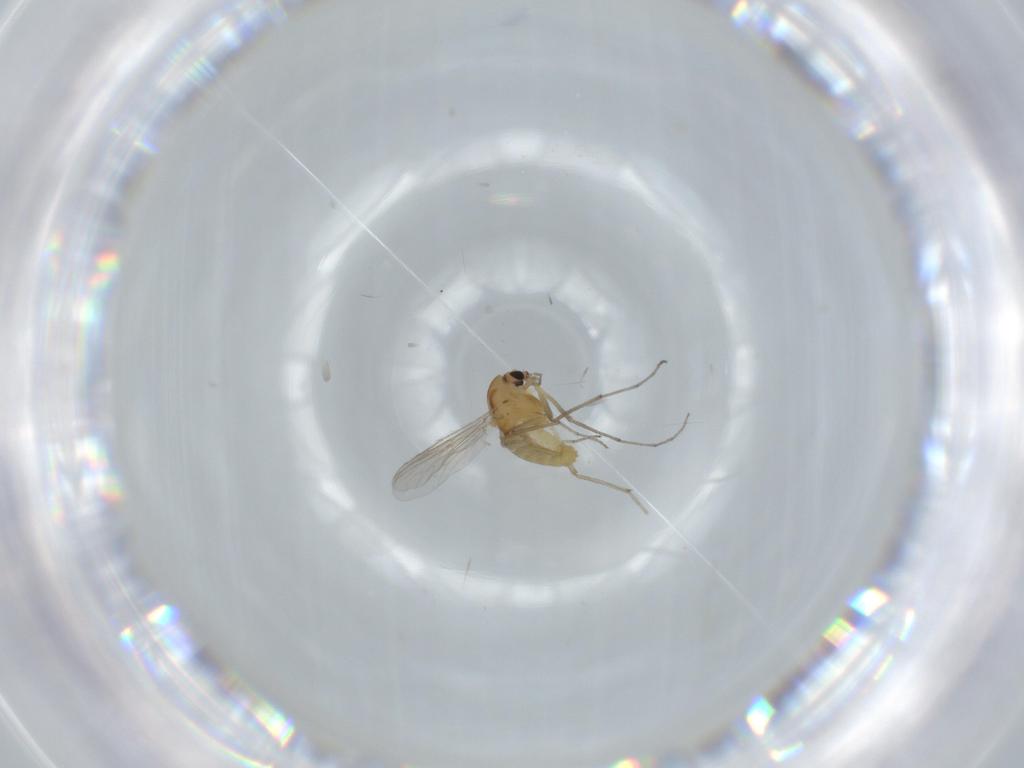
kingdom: Animalia
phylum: Arthropoda
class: Insecta
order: Diptera
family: Chironomidae
